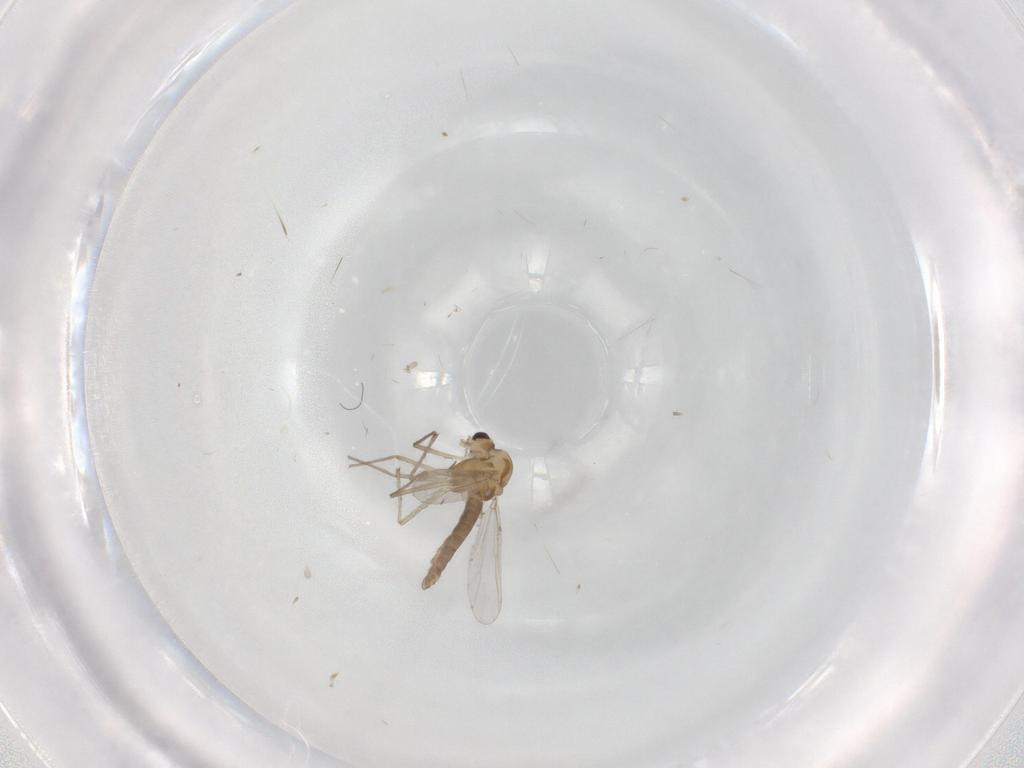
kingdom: Animalia
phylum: Arthropoda
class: Insecta
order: Diptera
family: Chironomidae
